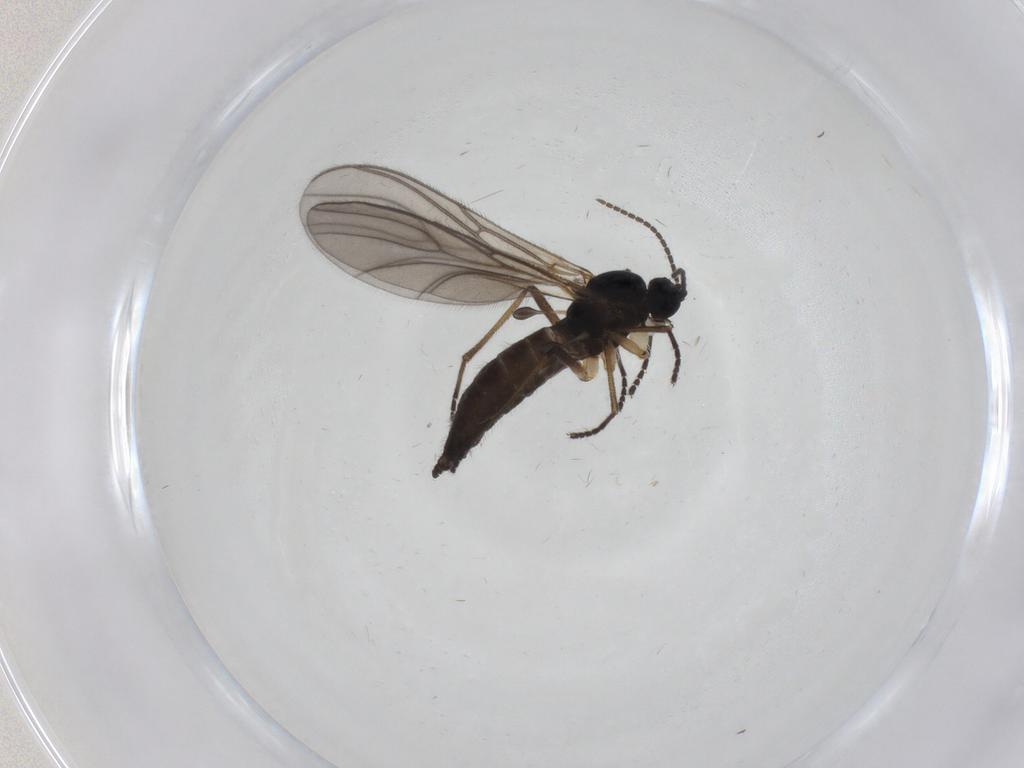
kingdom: Animalia
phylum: Arthropoda
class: Insecta
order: Diptera
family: Sciaridae
